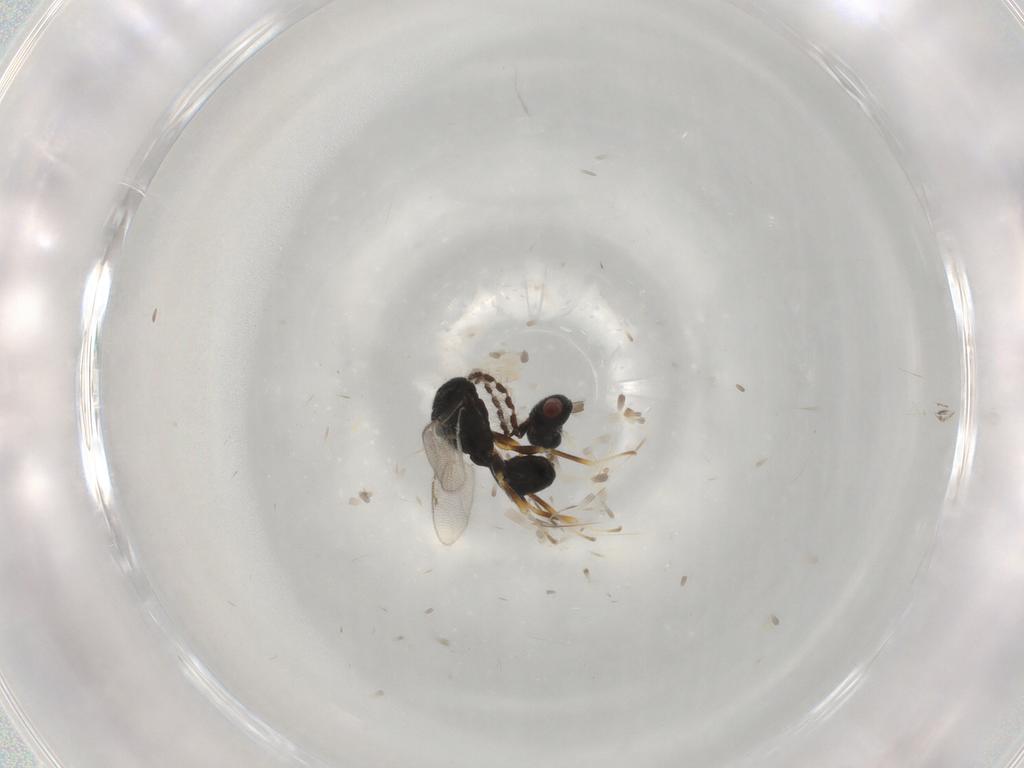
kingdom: Animalia
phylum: Arthropoda
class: Insecta
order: Hymenoptera
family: Eurytomidae
